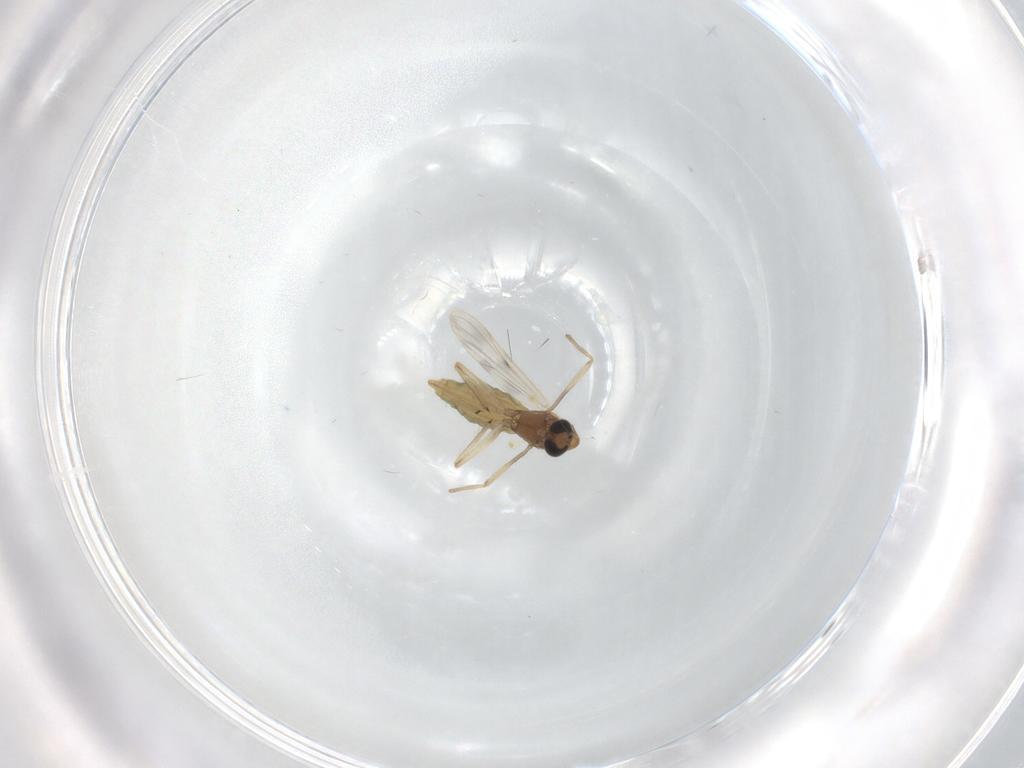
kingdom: Animalia
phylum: Arthropoda
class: Insecta
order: Diptera
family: Chironomidae
